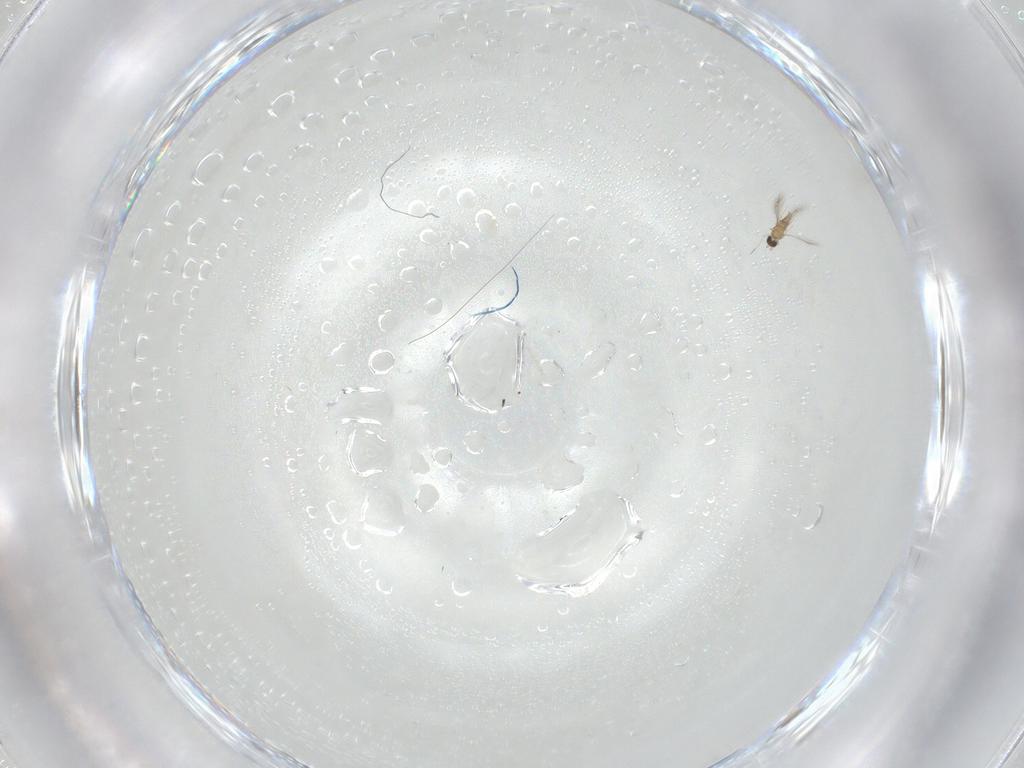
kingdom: Animalia
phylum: Arthropoda
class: Insecta
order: Hymenoptera
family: Mymaridae
